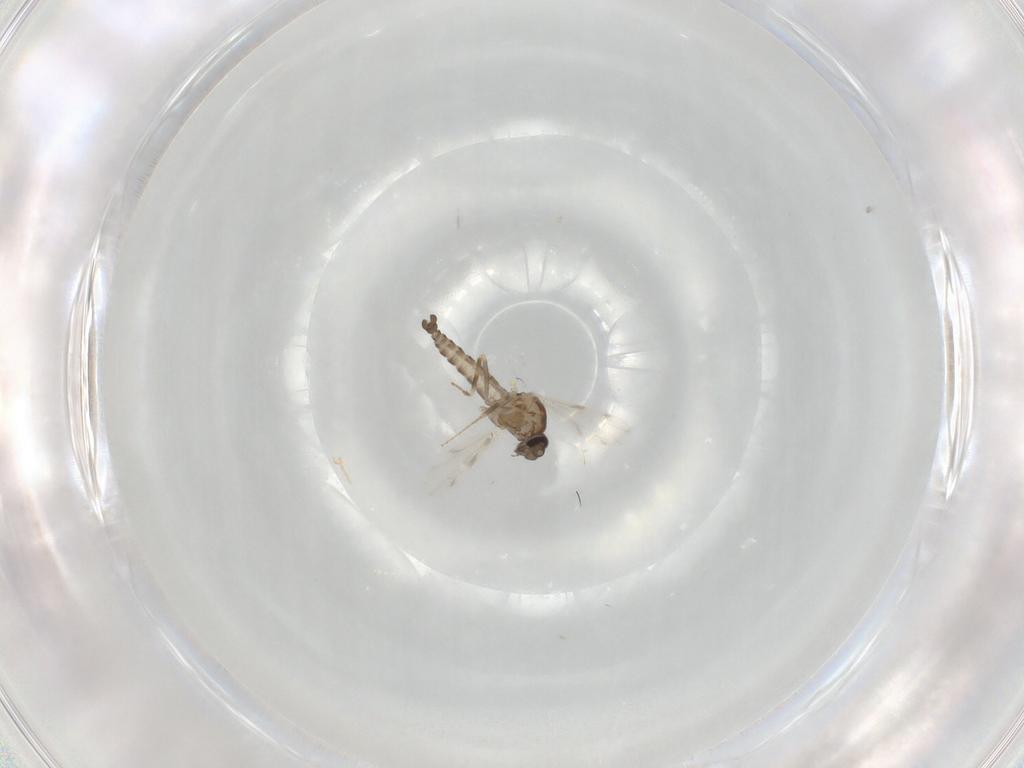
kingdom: Animalia
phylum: Arthropoda
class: Insecta
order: Diptera
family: Ceratopogonidae
